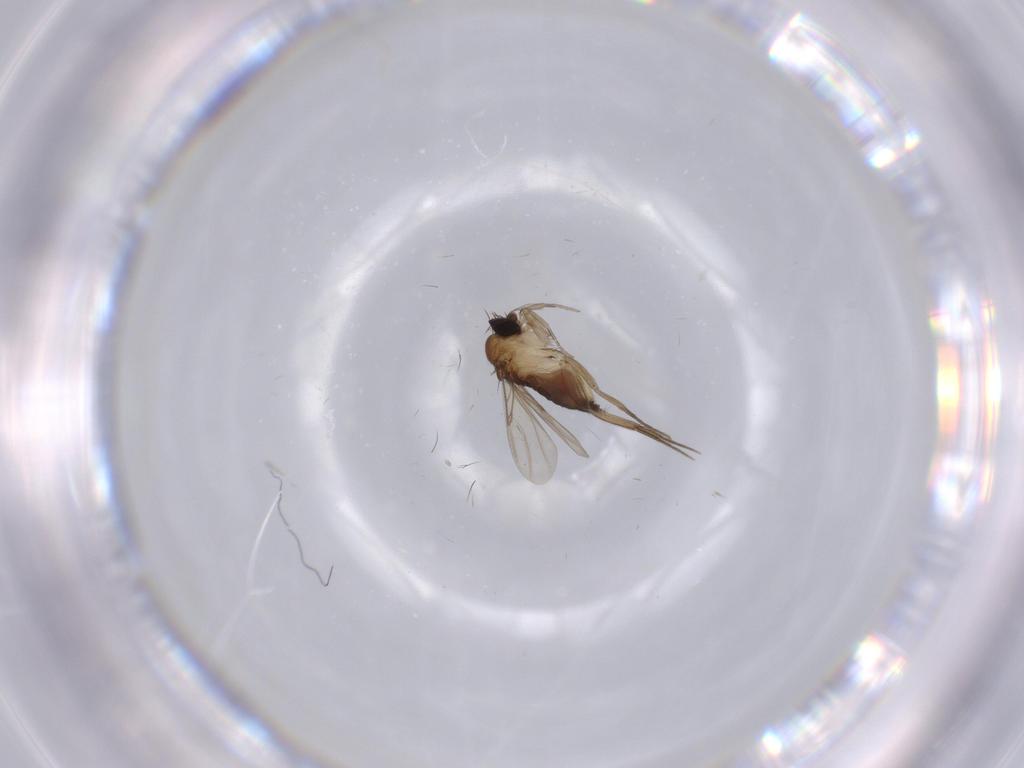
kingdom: Animalia
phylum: Arthropoda
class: Insecta
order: Diptera
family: Phoridae
